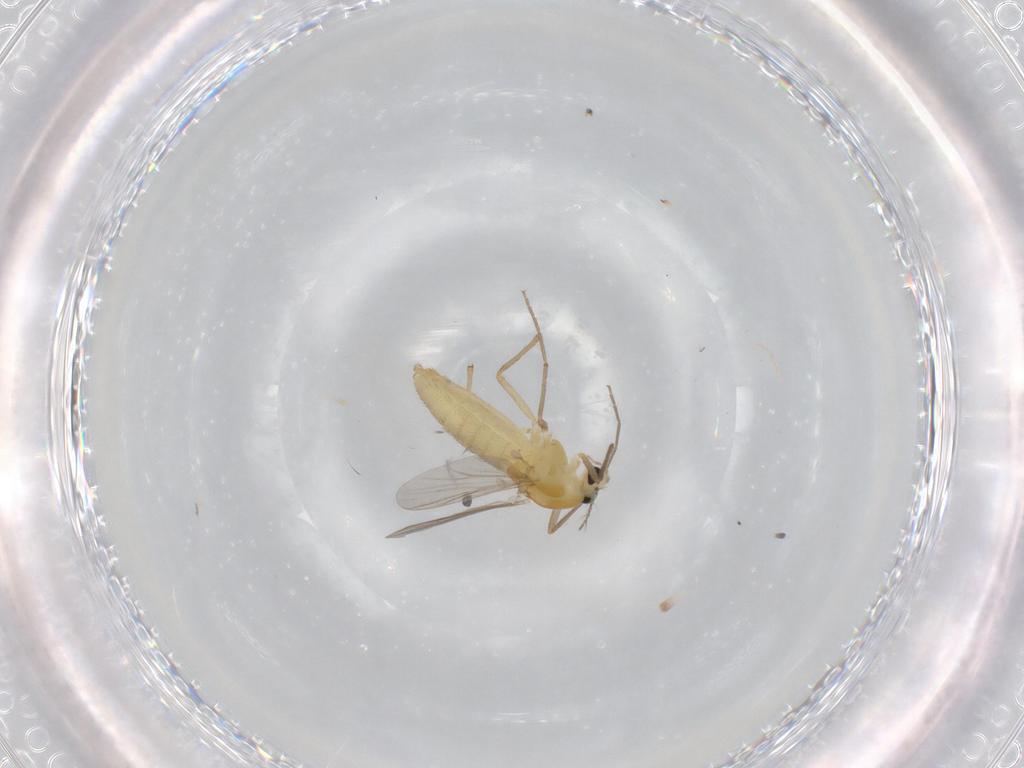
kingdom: Animalia
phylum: Arthropoda
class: Insecta
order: Diptera
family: Chironomidae
